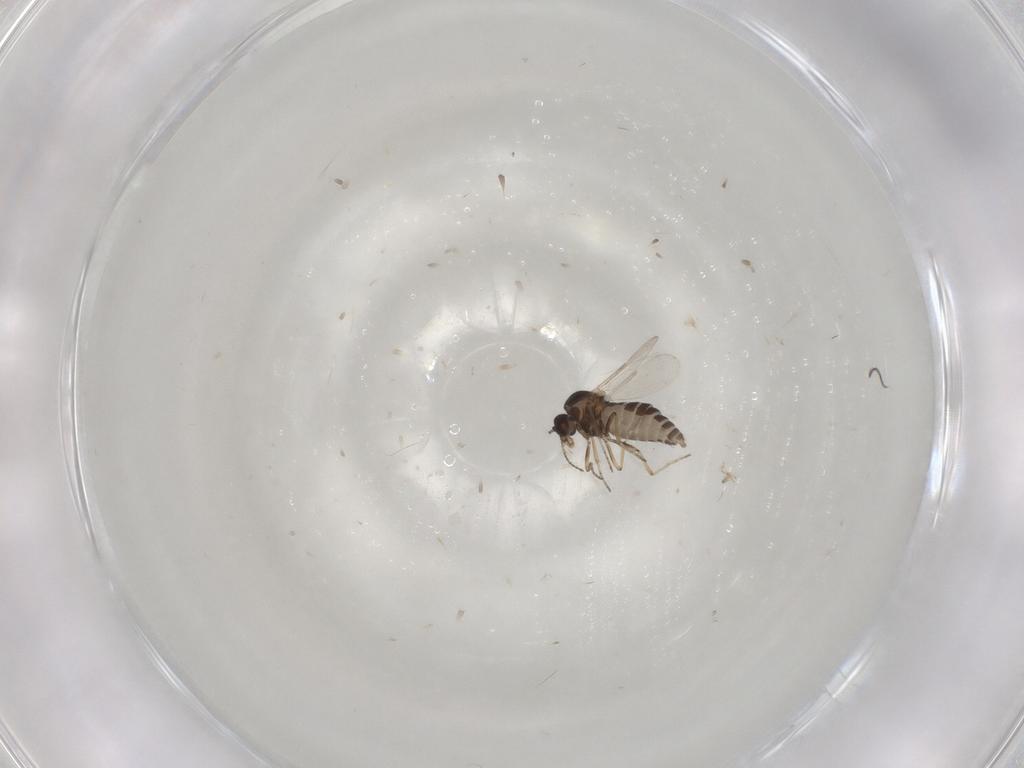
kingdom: Animalia
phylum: Arthropoda
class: Insecta
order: Diptera
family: Ceratopogonidae
